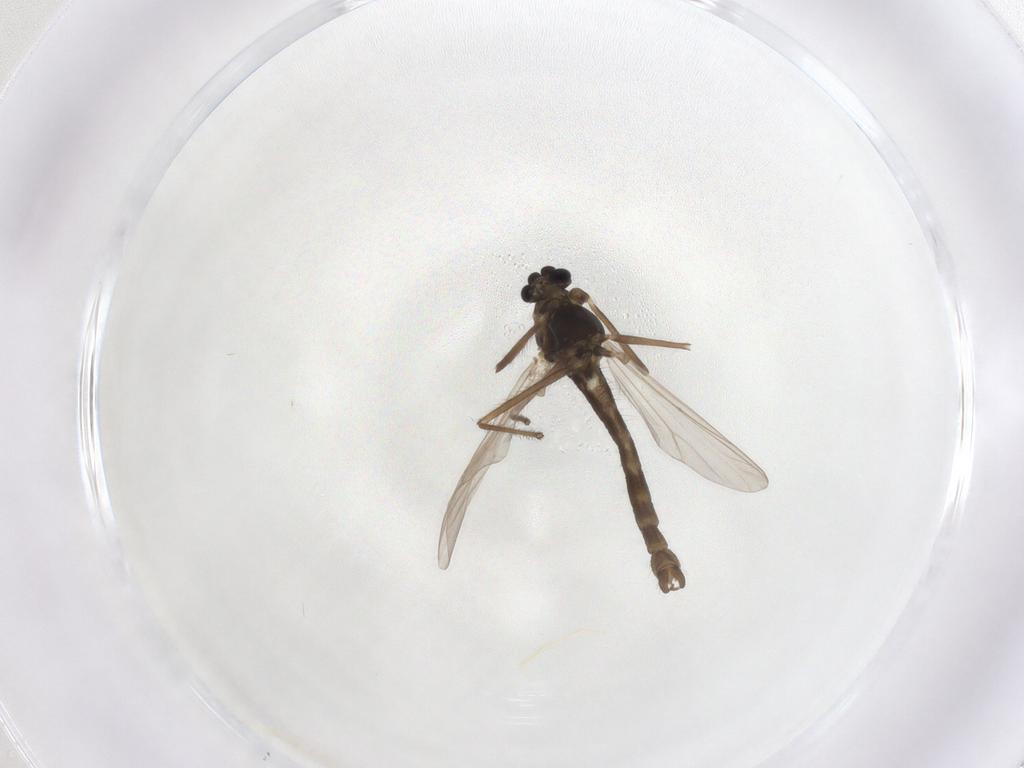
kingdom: Animalia
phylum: Arthropoda
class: Insecta
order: Diptera
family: Chironomidae
